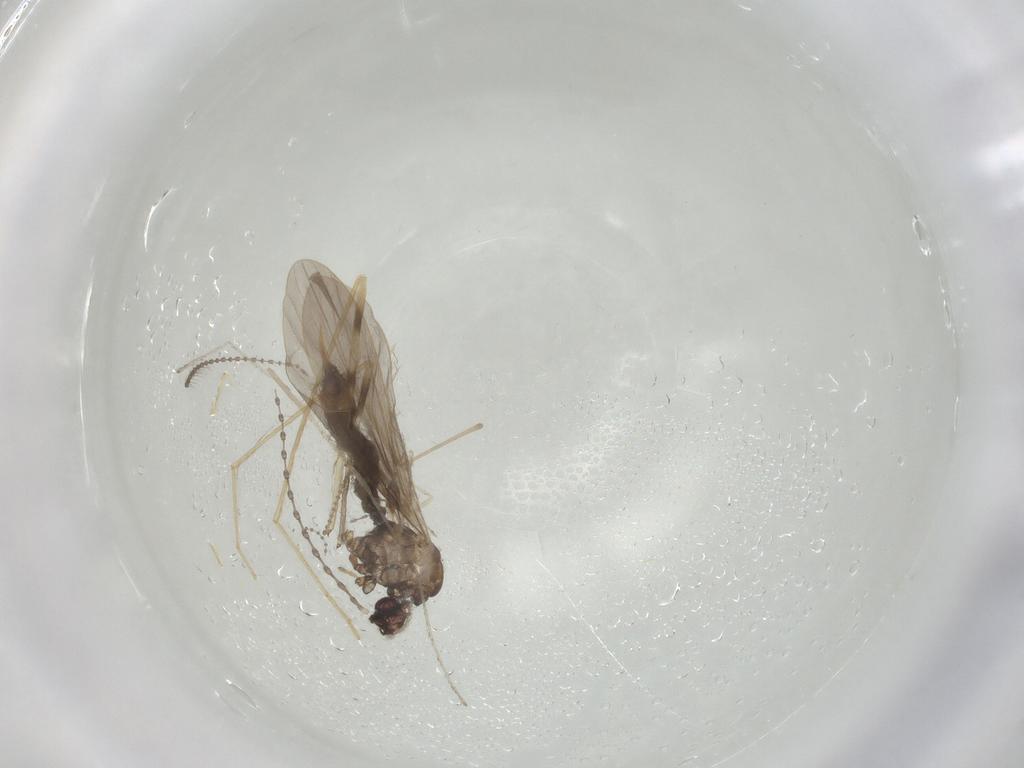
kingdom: Animalia
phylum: Arthropoda
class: Insecta
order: Diptera
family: Limoniidae
